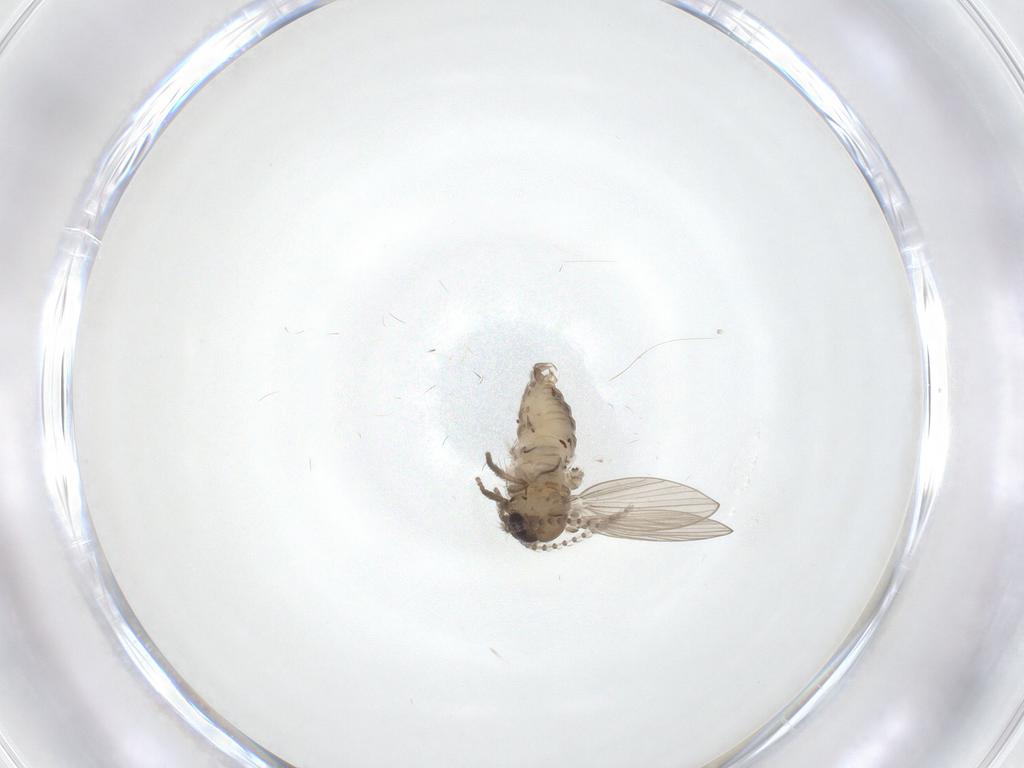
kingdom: Animalia
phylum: Arthropoda
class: Insecta
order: Diptera
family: Psychodidae
